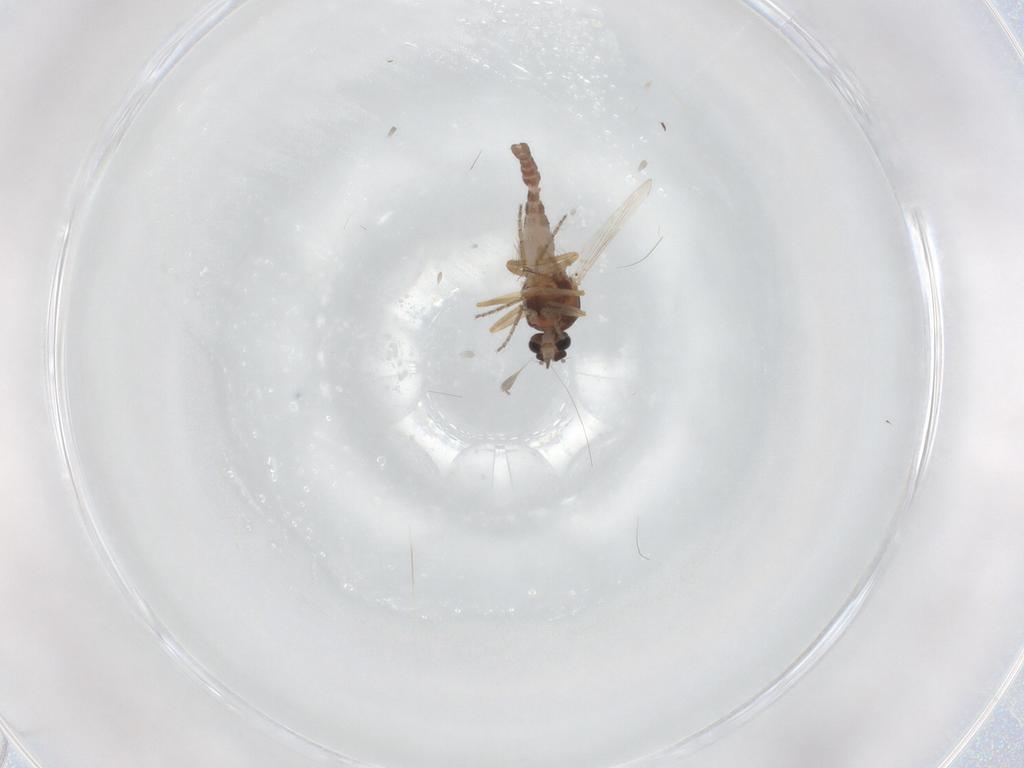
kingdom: Animalia
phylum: Arthropoda
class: Insecta
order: Diptera
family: Ceratopogonidae
